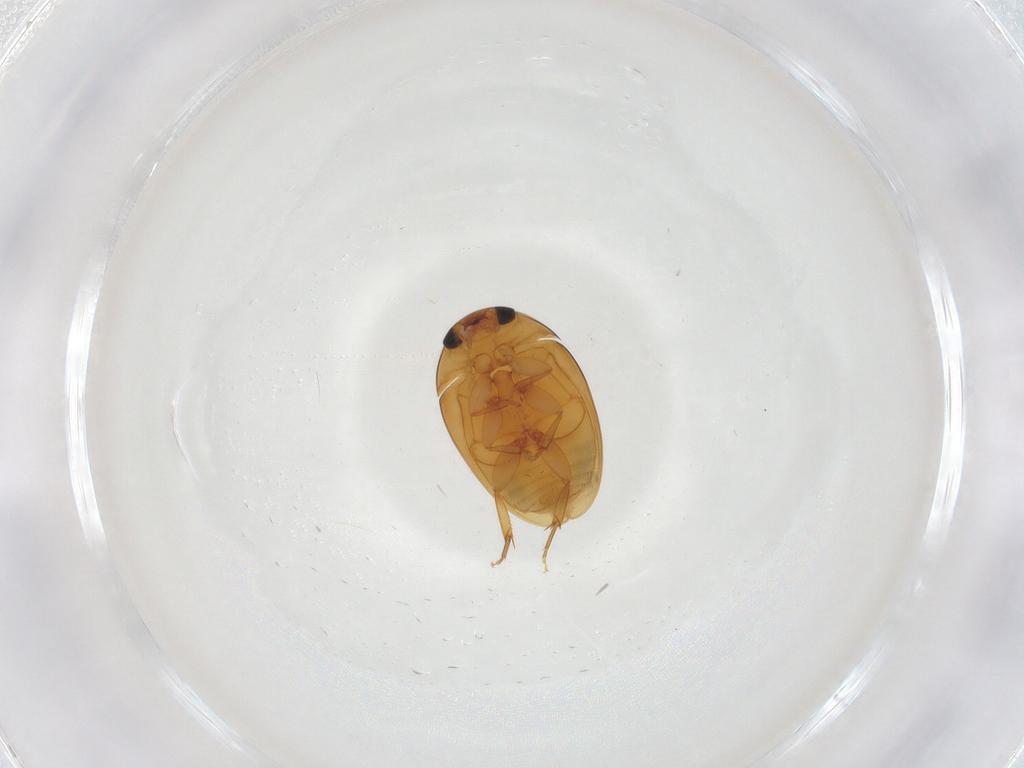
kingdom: Animalia
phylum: Arthropoda
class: Insecta
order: Coleoptera
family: Phalacridae
